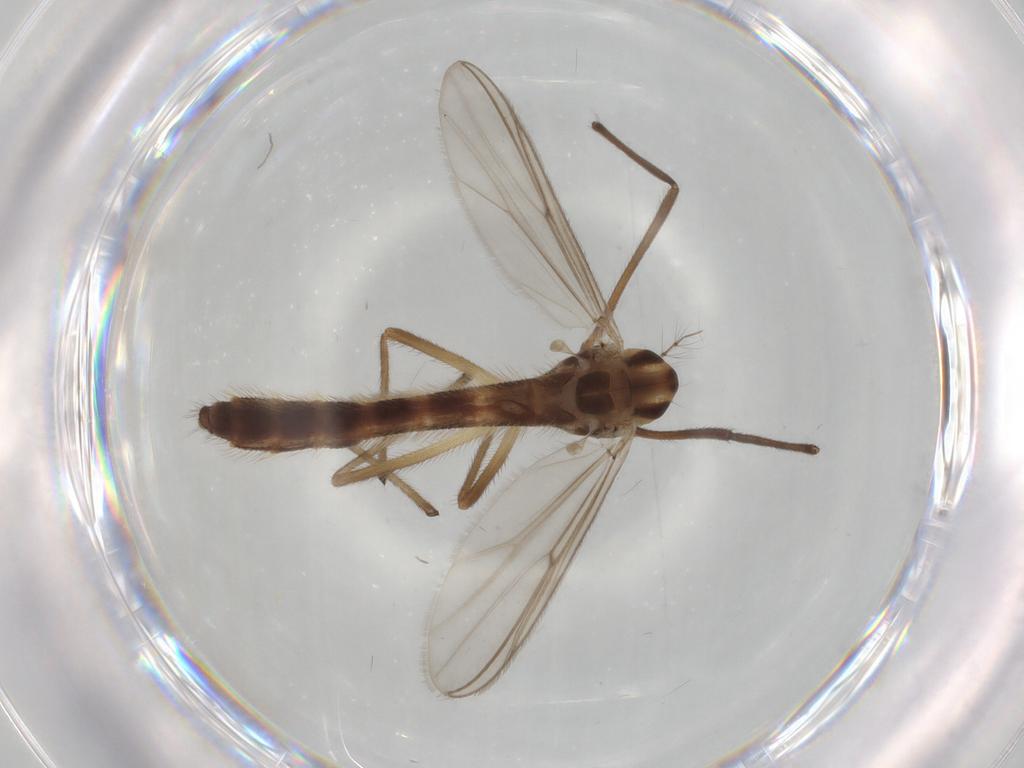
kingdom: Animalia
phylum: Arthropoda
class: Insecta
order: Diptera
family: Chironomidae
